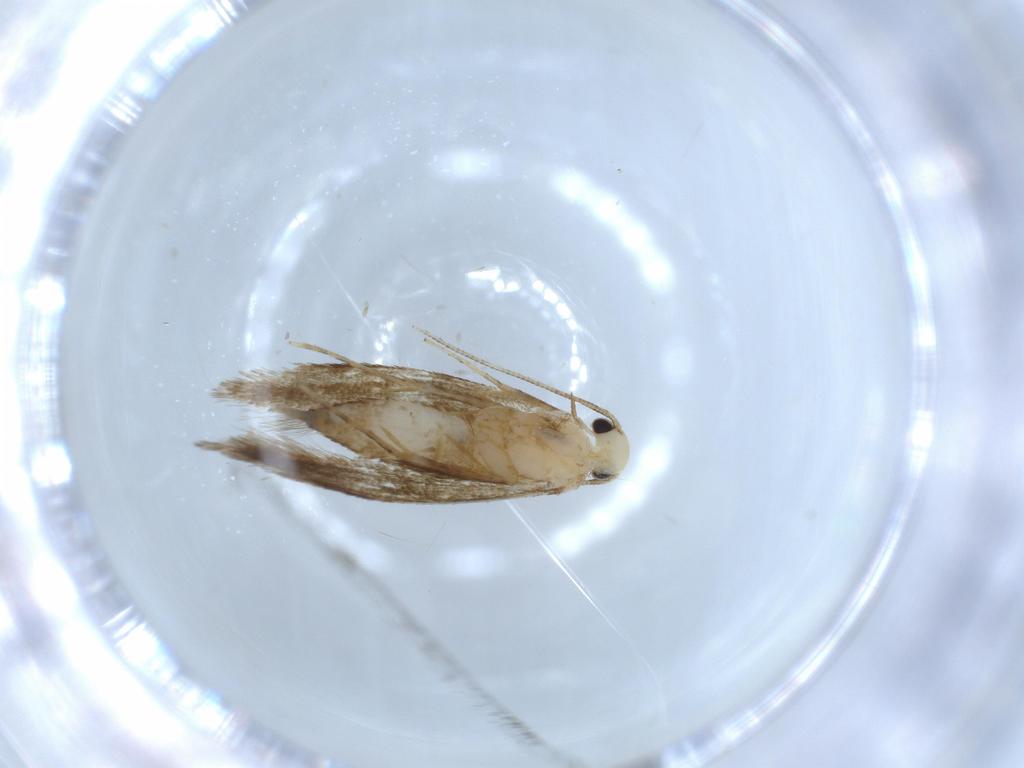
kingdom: Animalia
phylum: Arthropoda
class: Insecta
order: Lepidoptera
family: Tineidae
